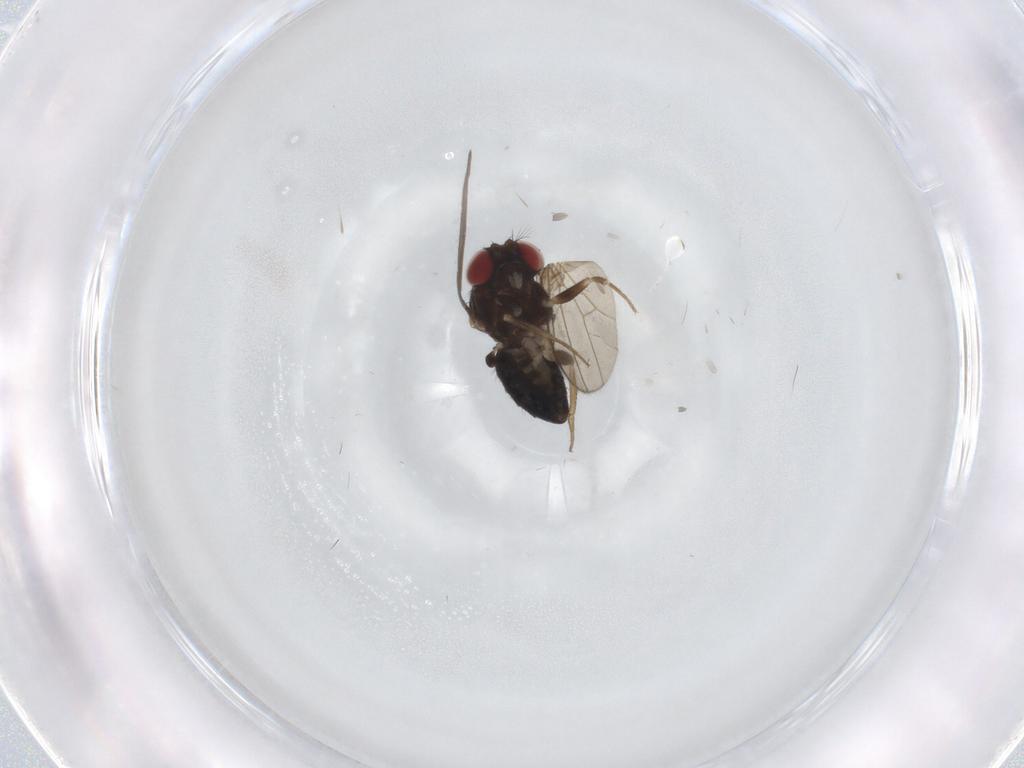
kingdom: Animalia
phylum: Arthropoda
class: Insecta
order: Diptera
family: Drosophilidae
